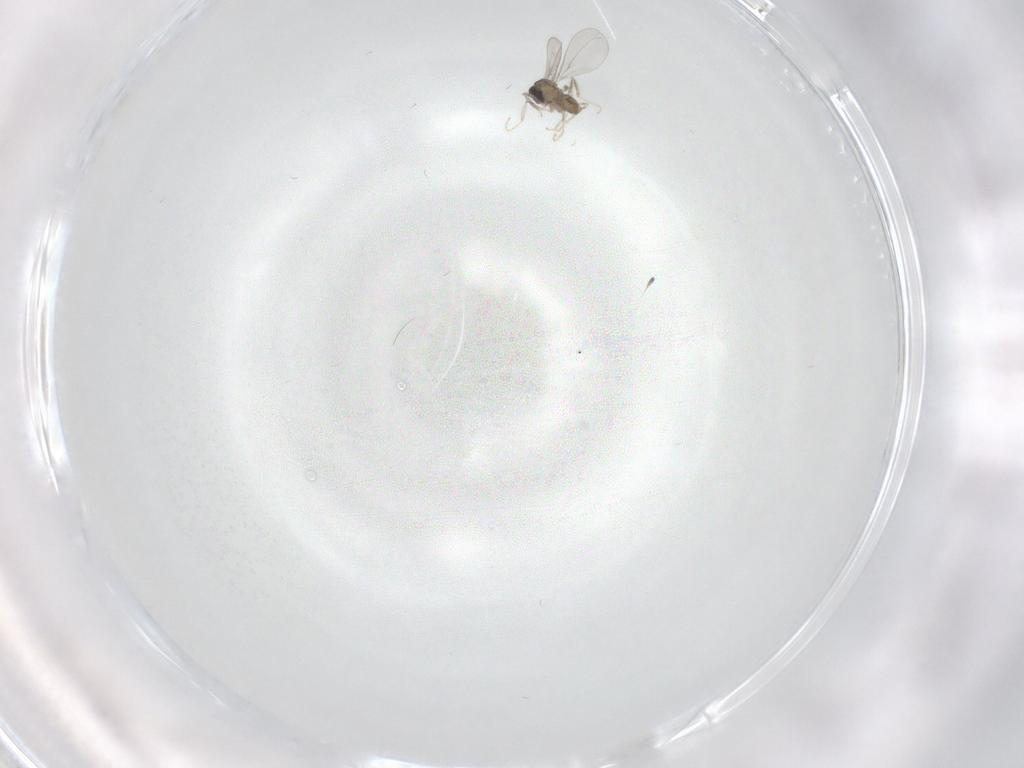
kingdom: Animalia
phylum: Arthropoda
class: Insecta
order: Diptera
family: Cecidomyiidae
